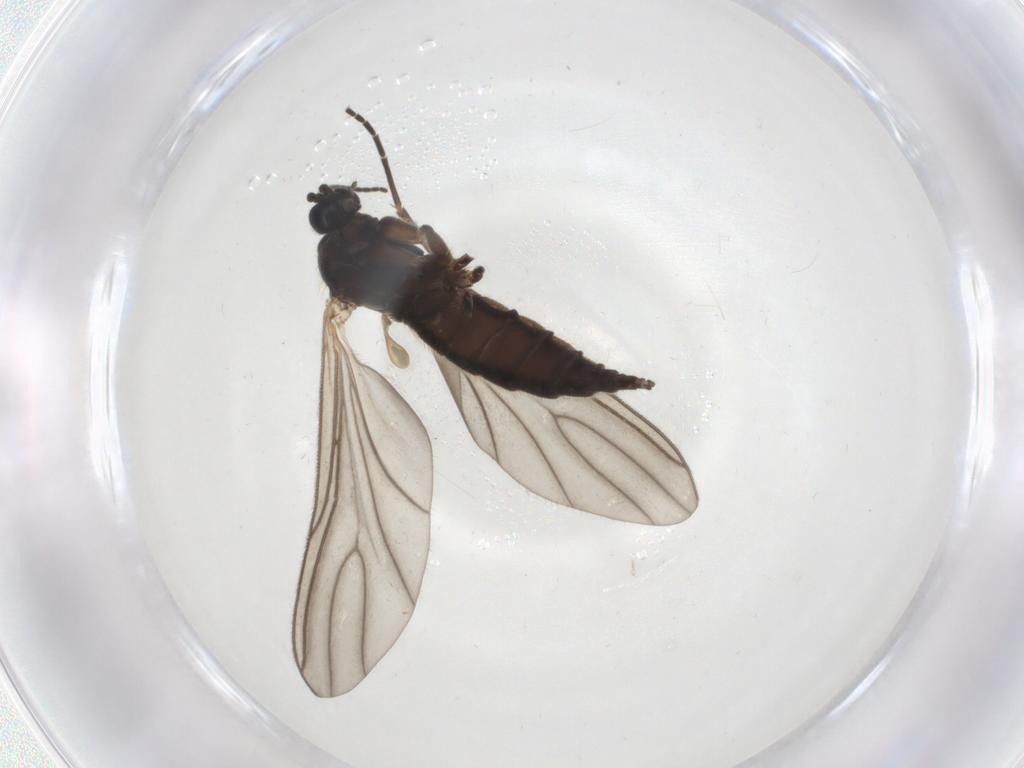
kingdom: Animalia
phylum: Arthropoda
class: Insecta
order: Diptera
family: Sciaridae
